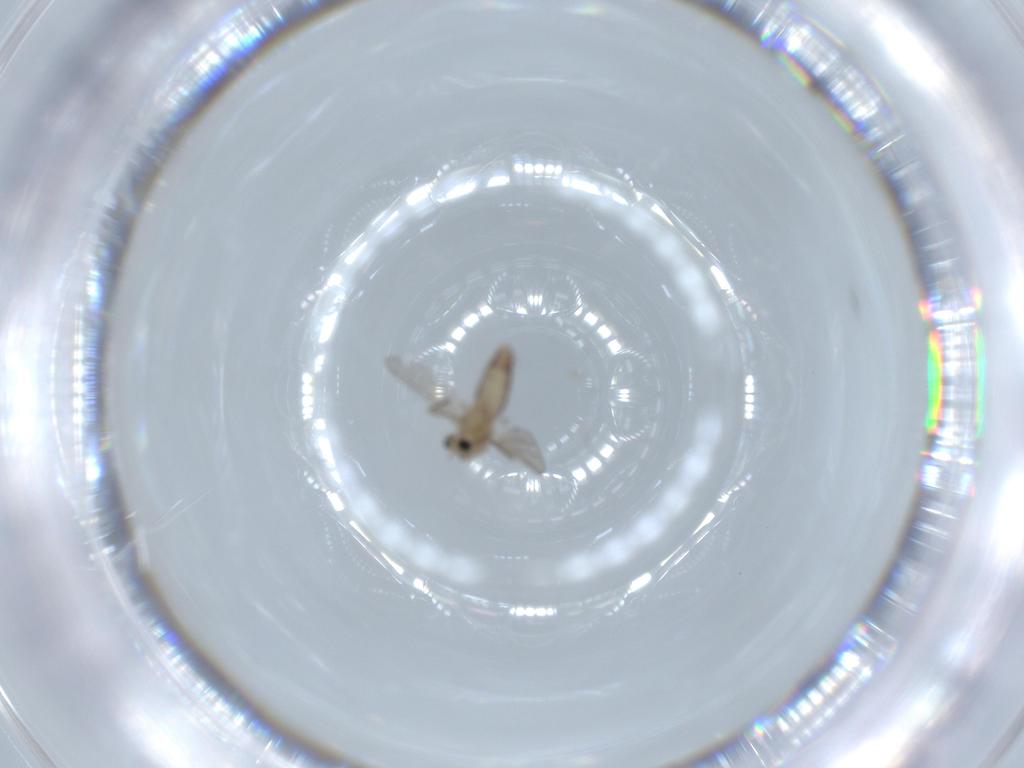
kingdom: Animalia
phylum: Arthropoda
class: Insecta
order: Diptera
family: Chironomidae
